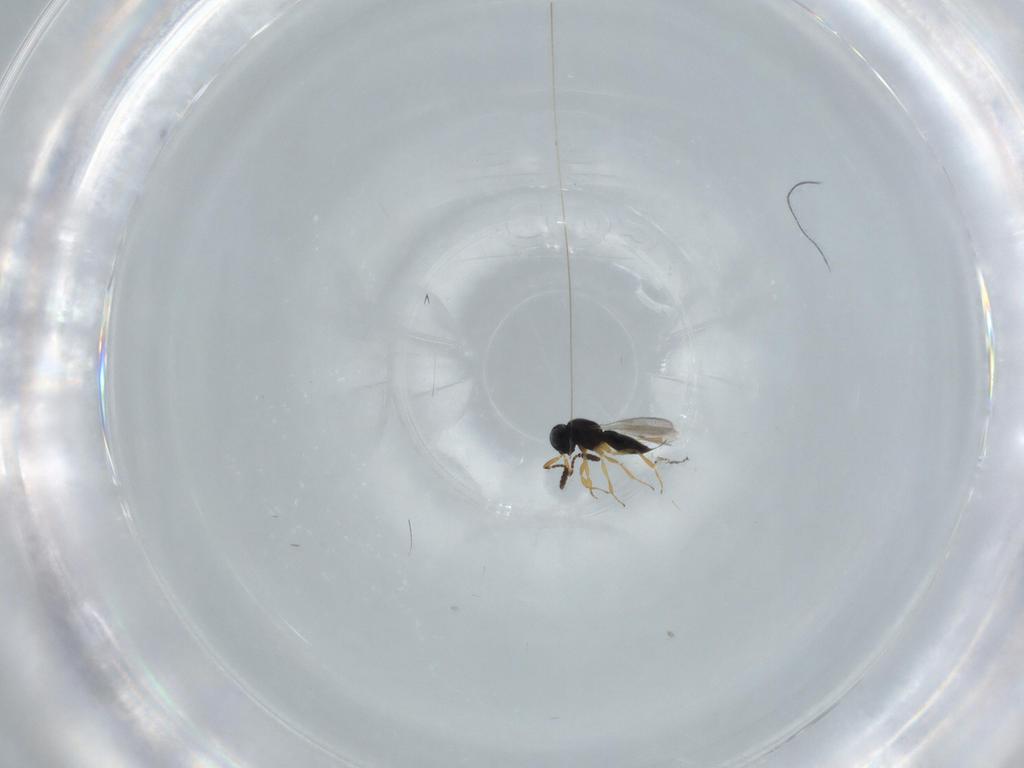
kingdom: Animalia
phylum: Arthropoda
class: Insecta
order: Hymenoptera
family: Scelionidae
